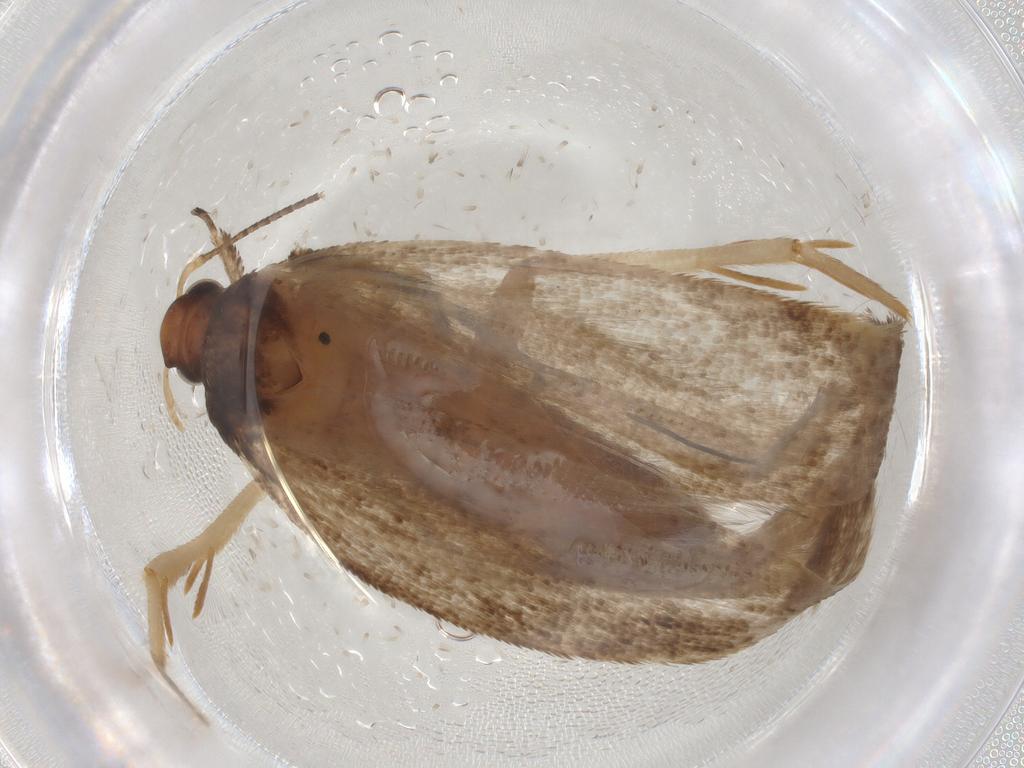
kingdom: Animalia
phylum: Arthropoda
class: Insecta
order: Lepidoptera
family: Gelechiidae
